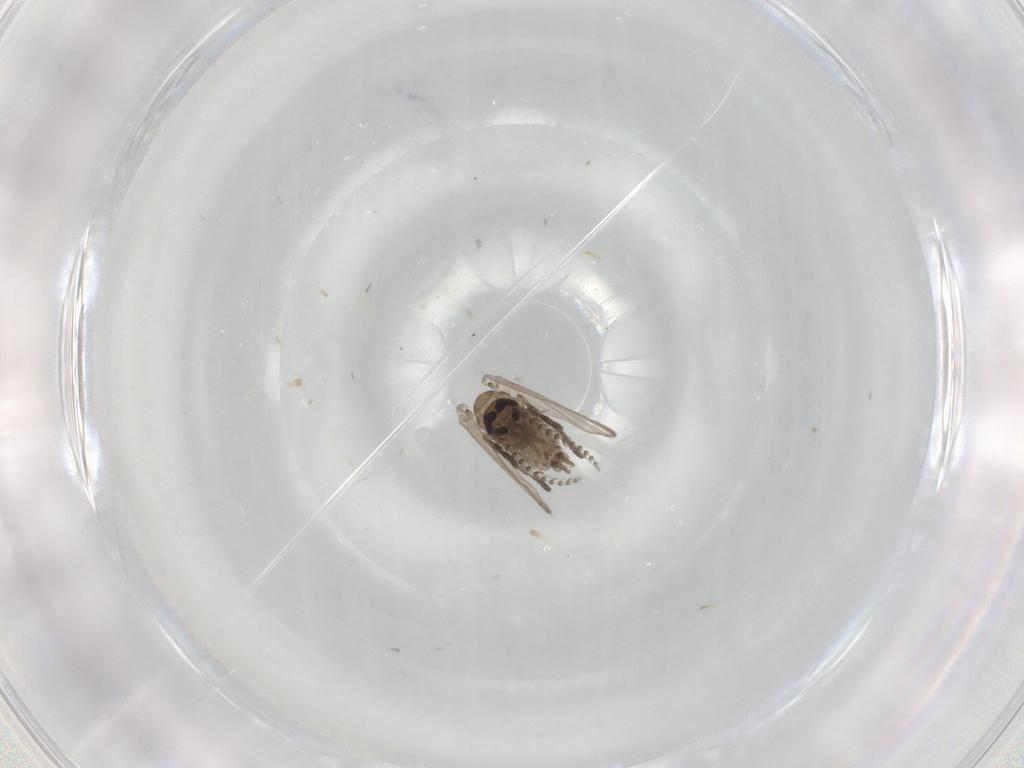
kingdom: Animalia
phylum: Arthropoda
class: Insecta
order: Diptera
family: Psychodidae
